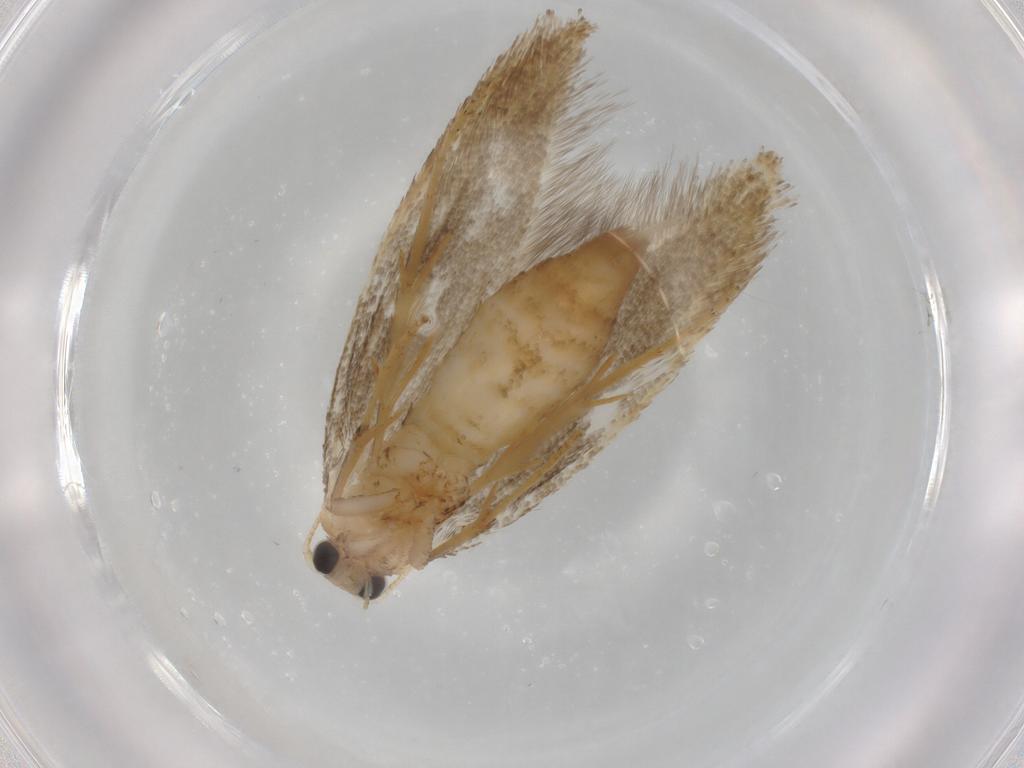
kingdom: Animalia
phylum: Arthropoda
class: Insecta
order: Lepidoptera
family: Nepticulidae
